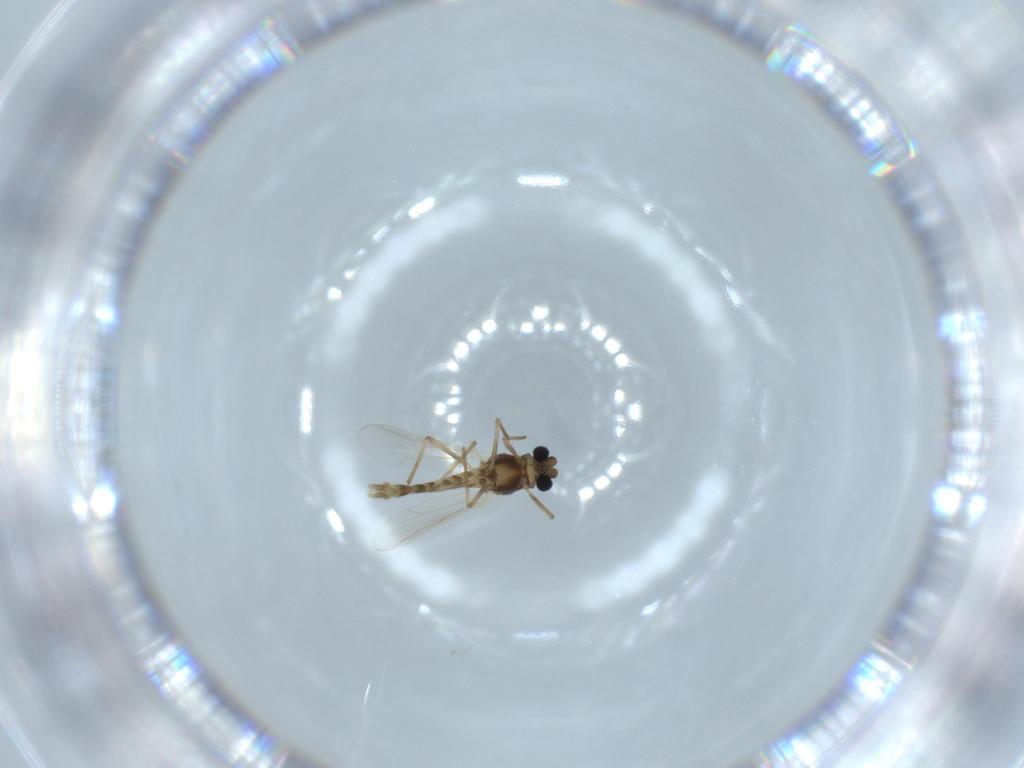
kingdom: Animalia
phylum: Arthropoda
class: Insecta
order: Diptera
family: Chironomidae
